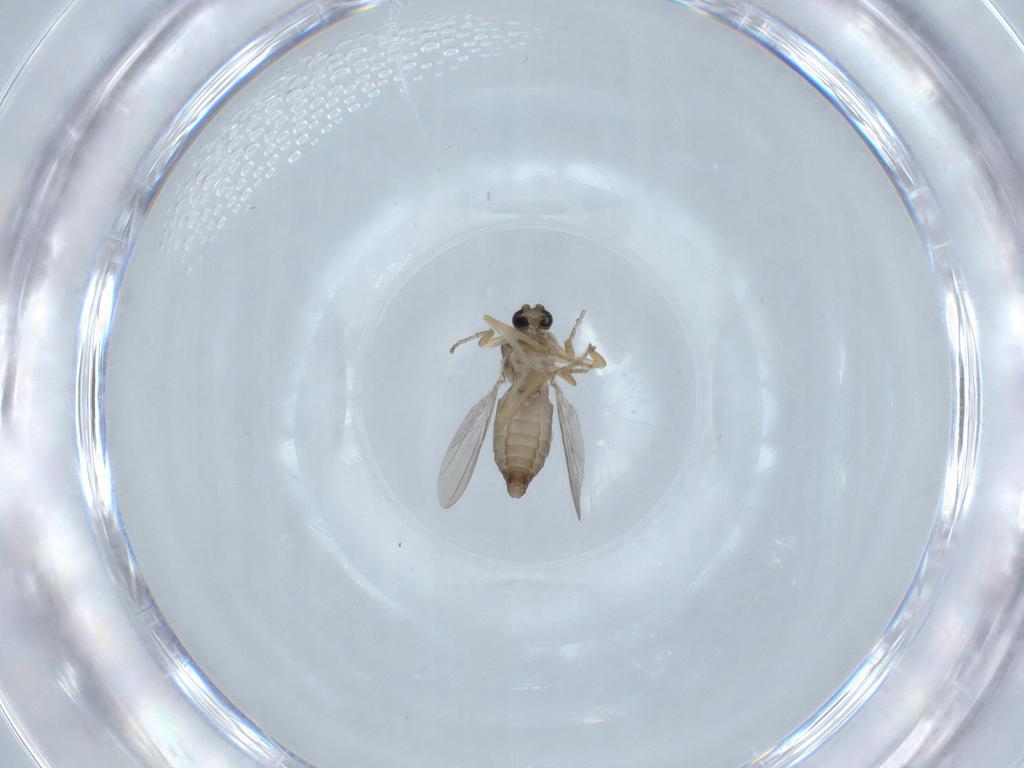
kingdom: Animalia
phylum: Arthropoda
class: Insecta
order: Diptera
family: Ceratopogonidae
